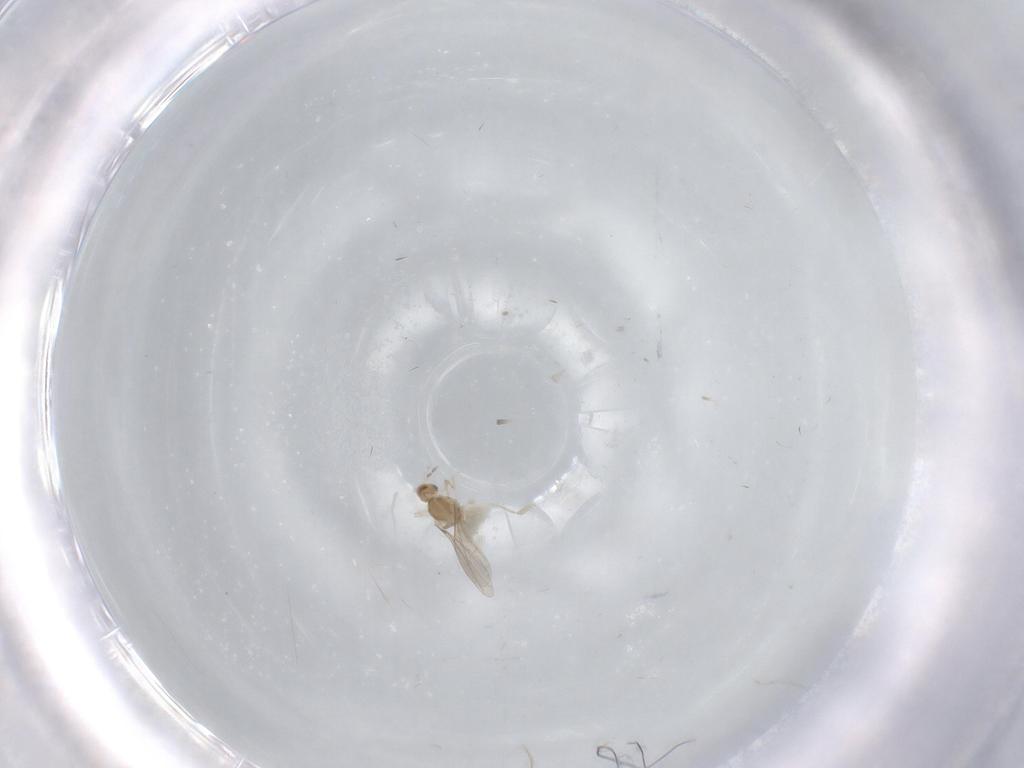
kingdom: Animalia
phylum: Arthropoda
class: Insecta
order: Diptera
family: Cecidomyiidae
